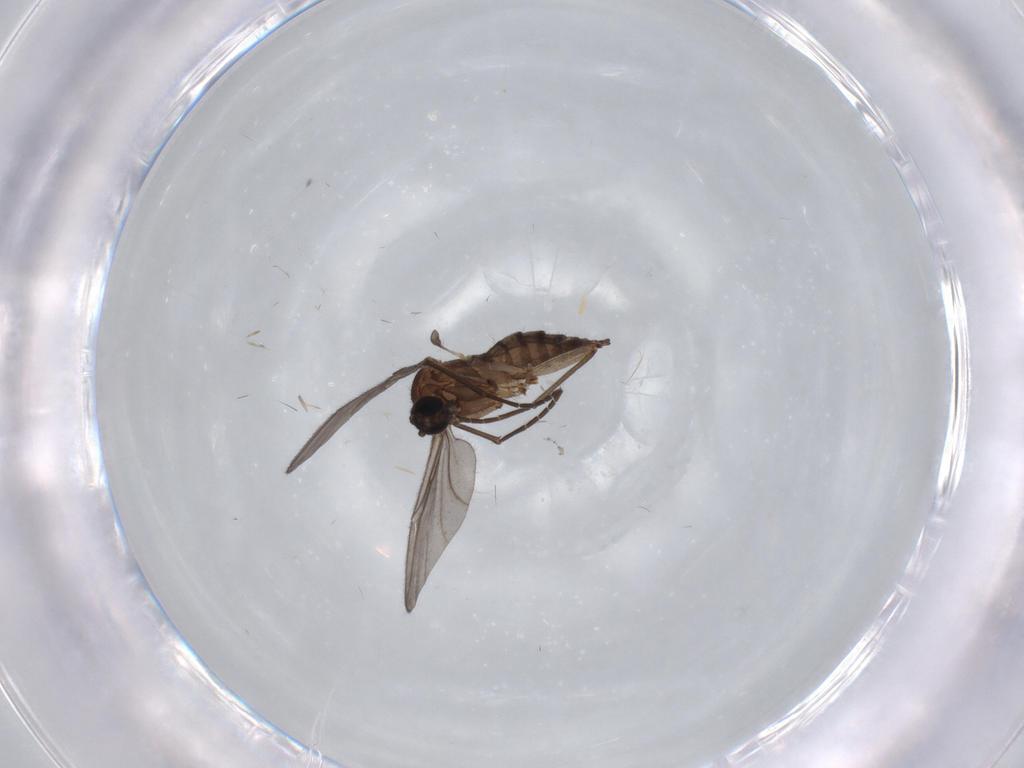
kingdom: Animalia
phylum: Arthropoda
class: Insecta
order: Diptera
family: Sciaridae
